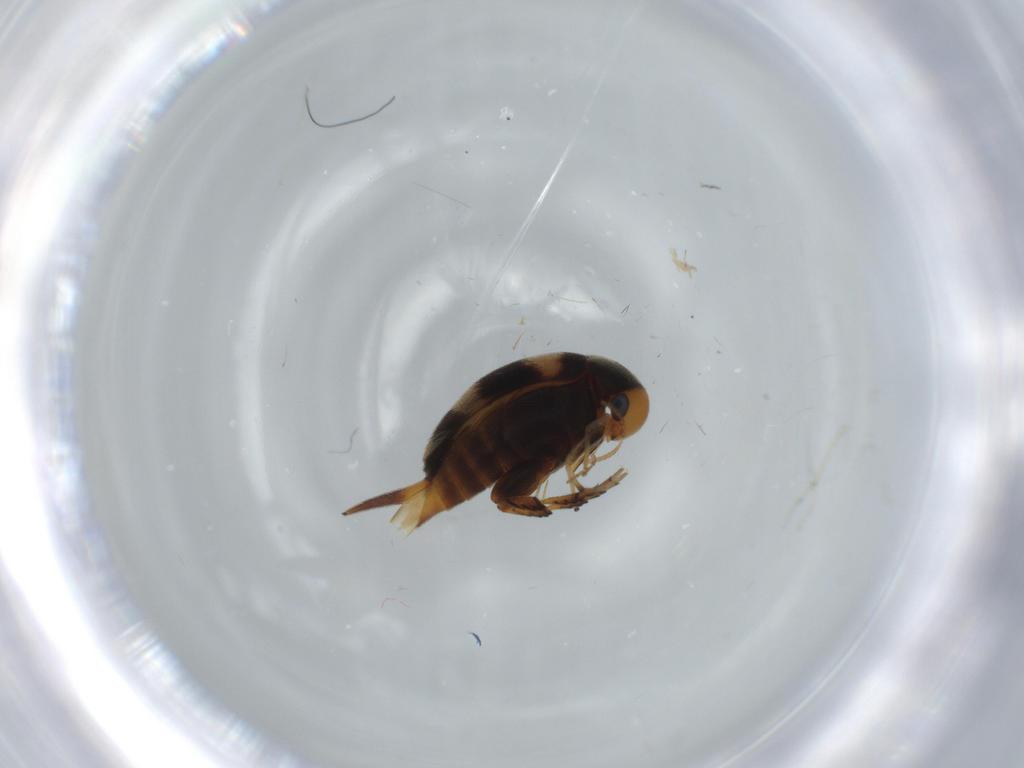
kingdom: Animalia
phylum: Arthropoda
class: Insecta
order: Coleoptera
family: Mordellidae
